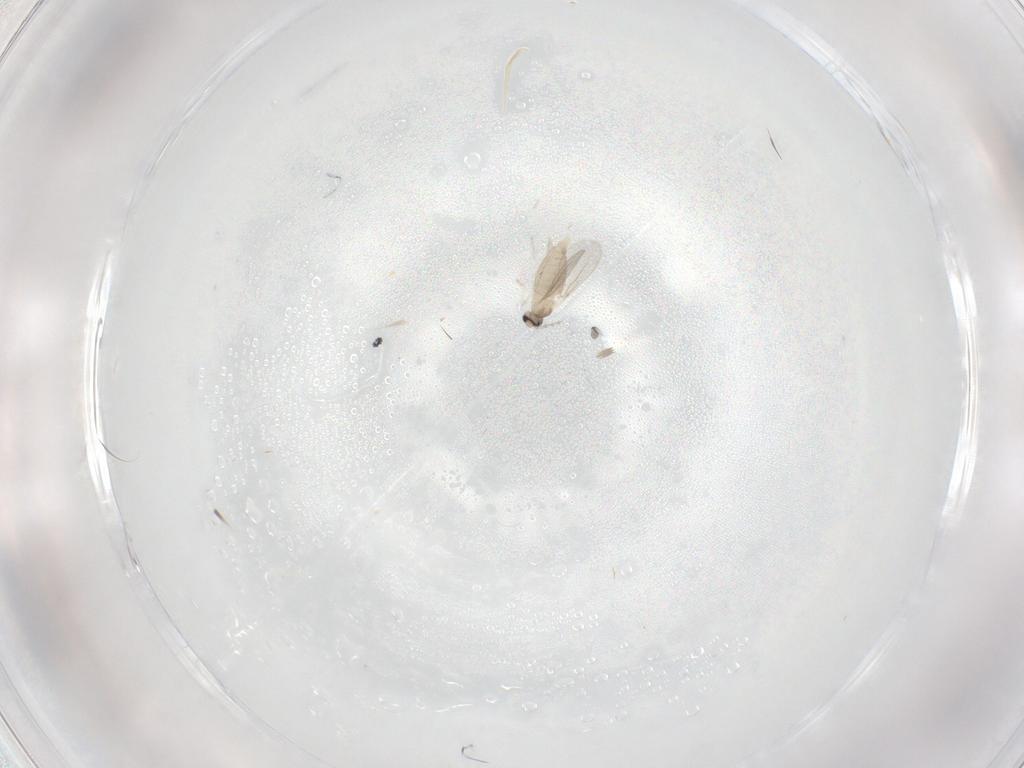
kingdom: Animalia
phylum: Arthropoda
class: Insecta
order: Diptera
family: Cecidomyiidae
